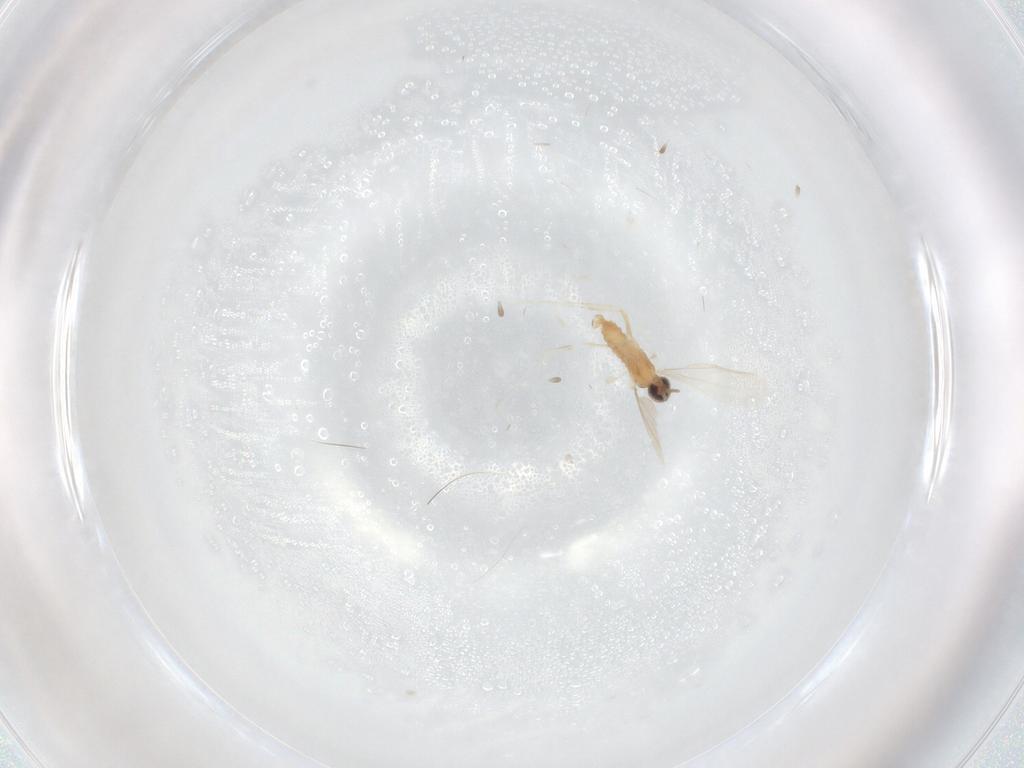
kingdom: Animalia
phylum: Arthropoda
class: Insecta
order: Diptera
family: Cecidomyiidae
